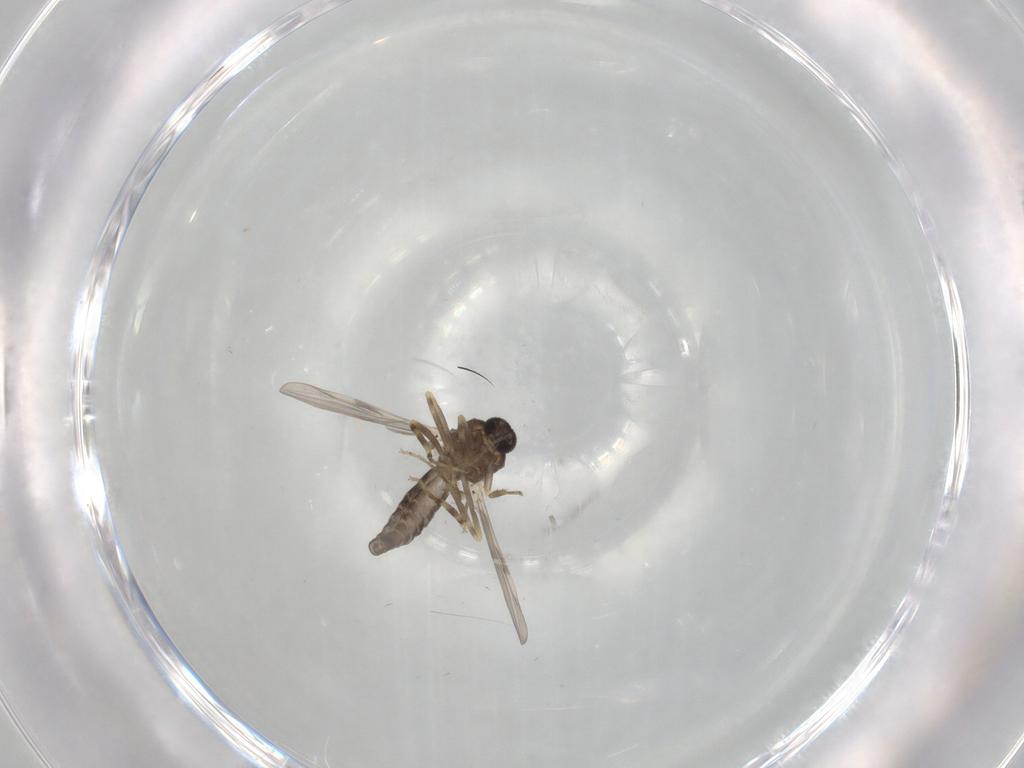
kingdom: Animalia
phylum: Arthropoda
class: Insecta
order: Diptera
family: Ceratopogonidae
